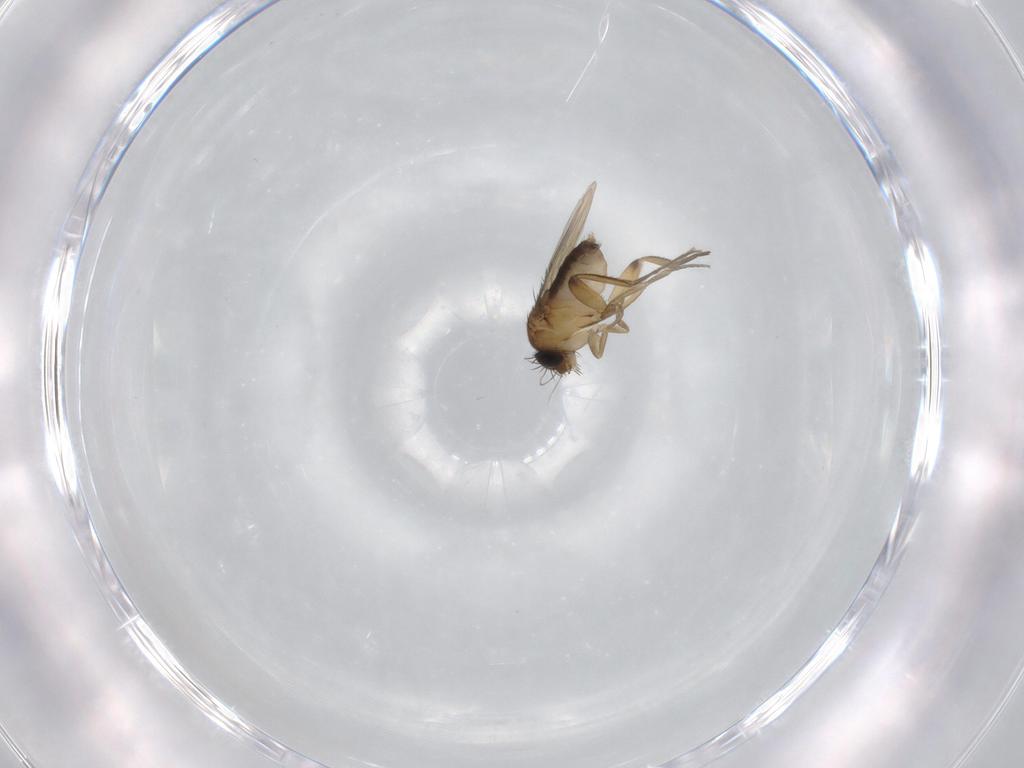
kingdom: Animalia
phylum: Arthropoda
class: Insecta
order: Diptera
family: Phoridae
